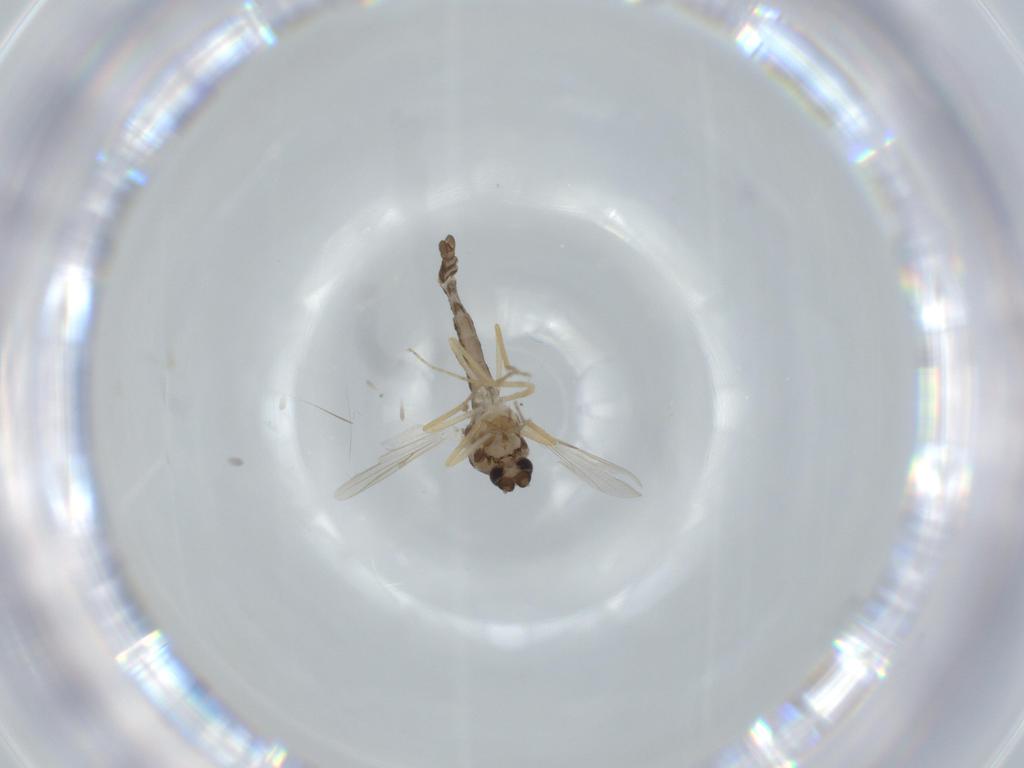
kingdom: Animalia
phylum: Arthropoda
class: Insecta
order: Diptera
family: Ceratopogonidae
